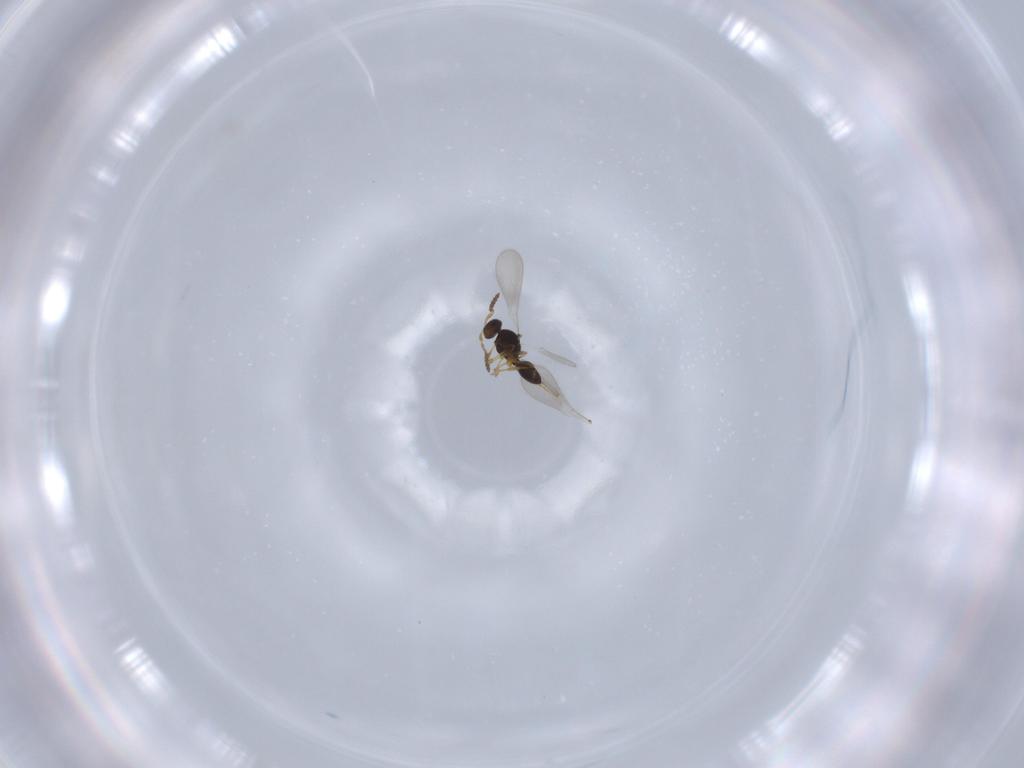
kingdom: Animalia
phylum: Arthropoda
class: Insecta
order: Hymenoptera
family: Platygastridae
